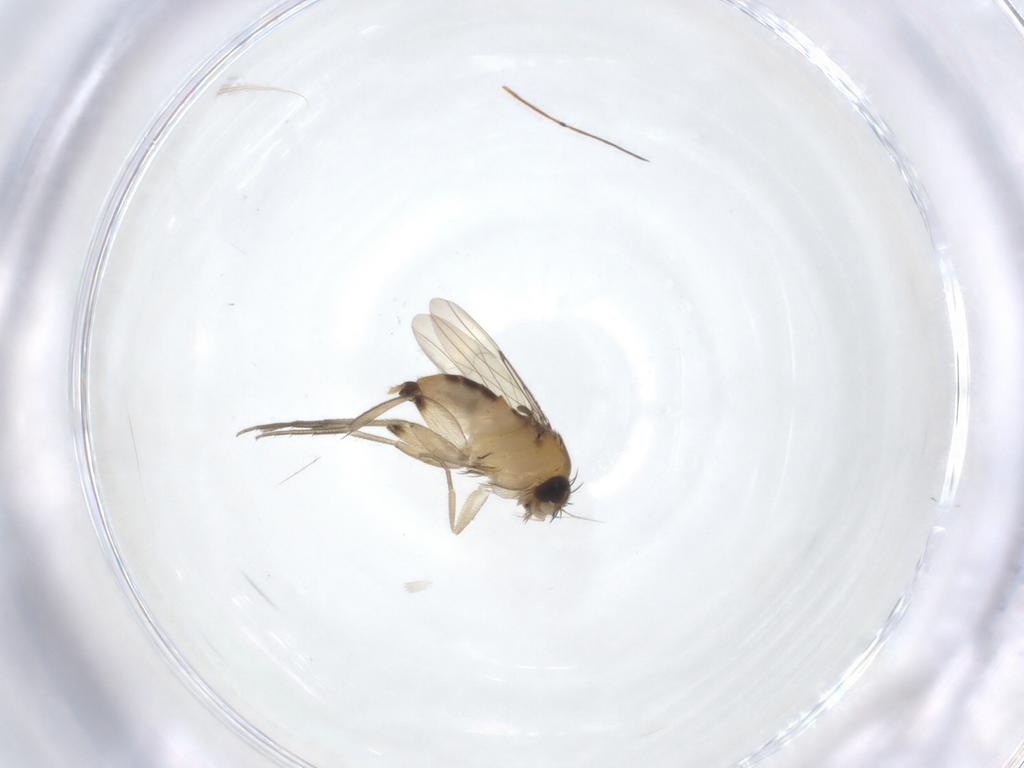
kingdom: Animalia
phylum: Arthropoda
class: Insecta
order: Diptera
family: Phoridae
